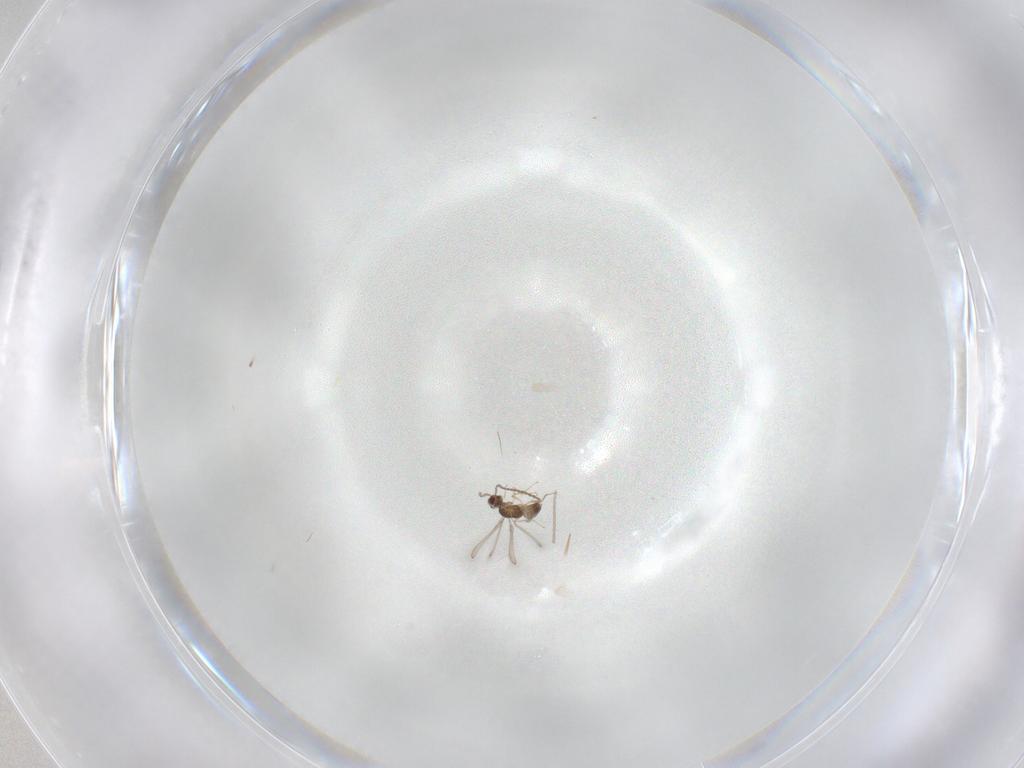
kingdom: Animalia
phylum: Arthropoda
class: Insecta
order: Hymenoptera
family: Mymaridae
